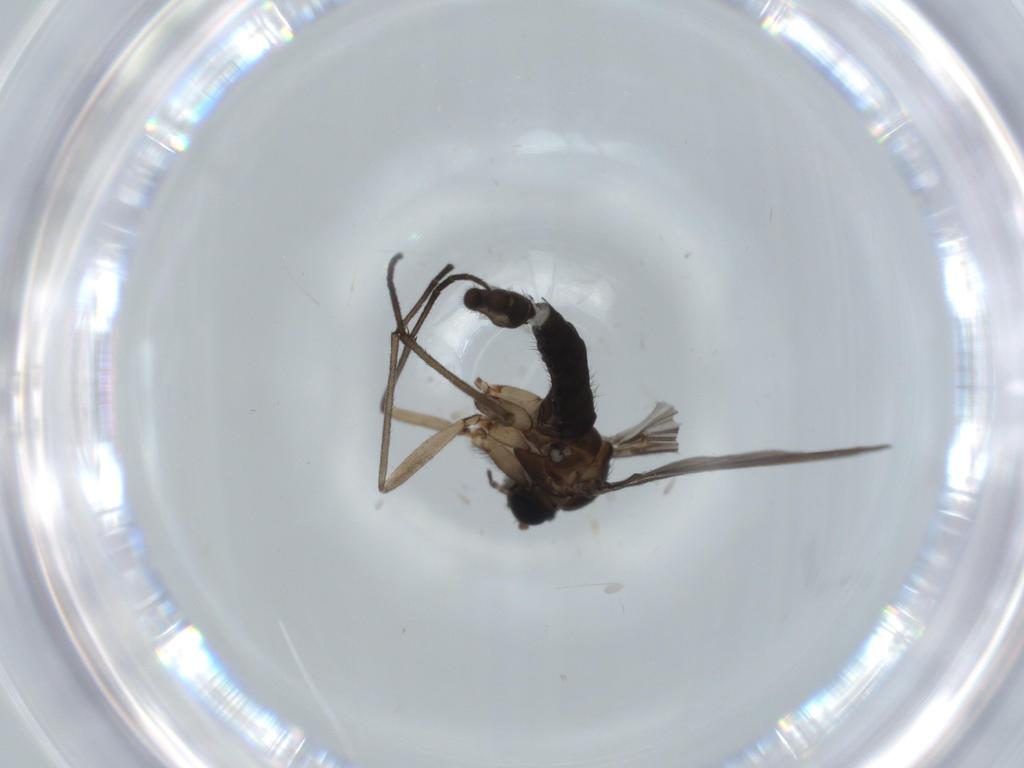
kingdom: Animalia
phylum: Arthropoda
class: Insecta
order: Diptera
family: Sciaridae
